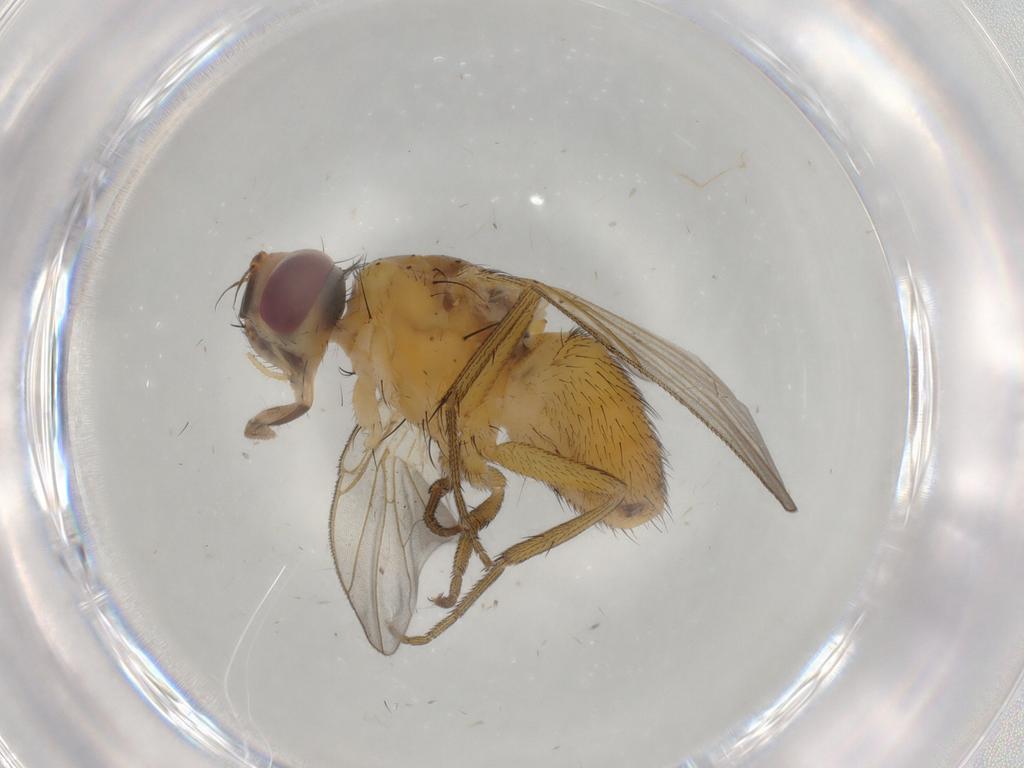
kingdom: Animalia
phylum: Arthropoda
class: Insecta
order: Diptera
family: Muscidae
